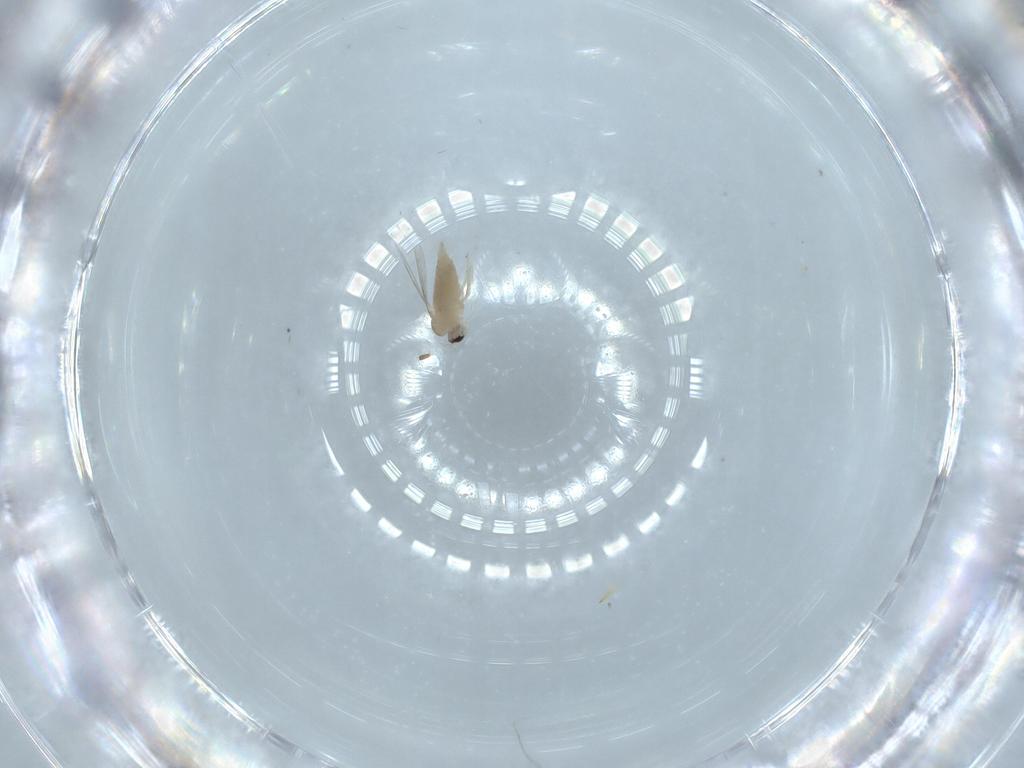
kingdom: Animalia
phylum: Arthropoda
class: Insecta
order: Diptera
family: Cecidomyiidae
